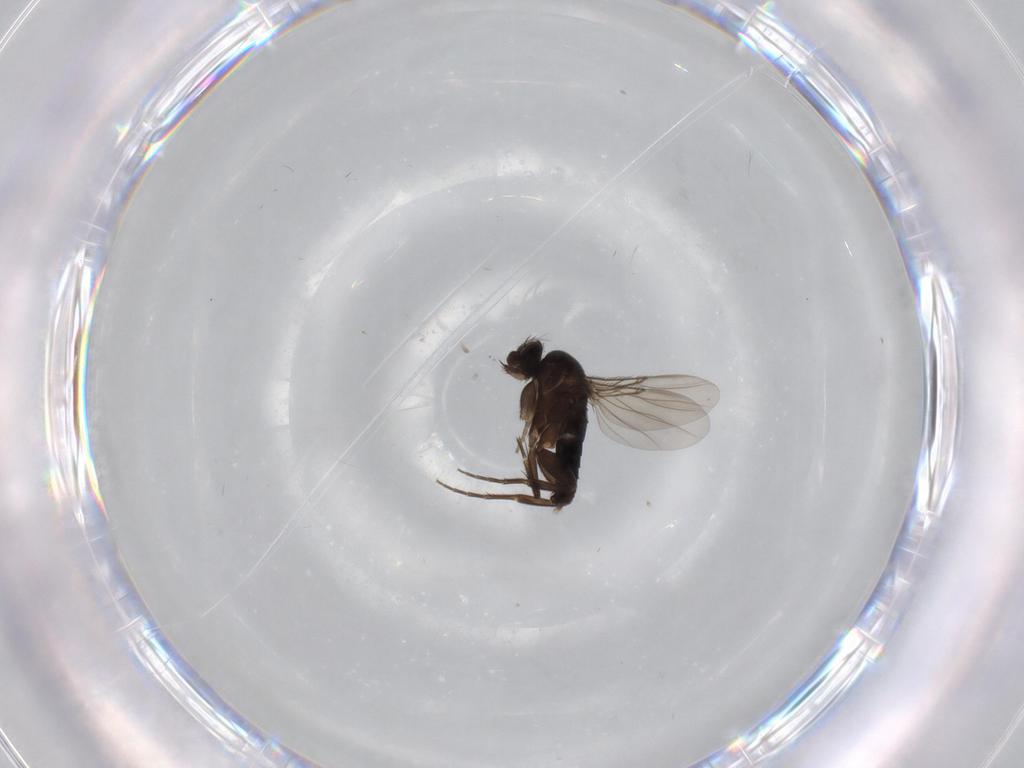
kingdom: Animalia
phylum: Arthropoda
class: Insecta
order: Diptera
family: Phoridae
